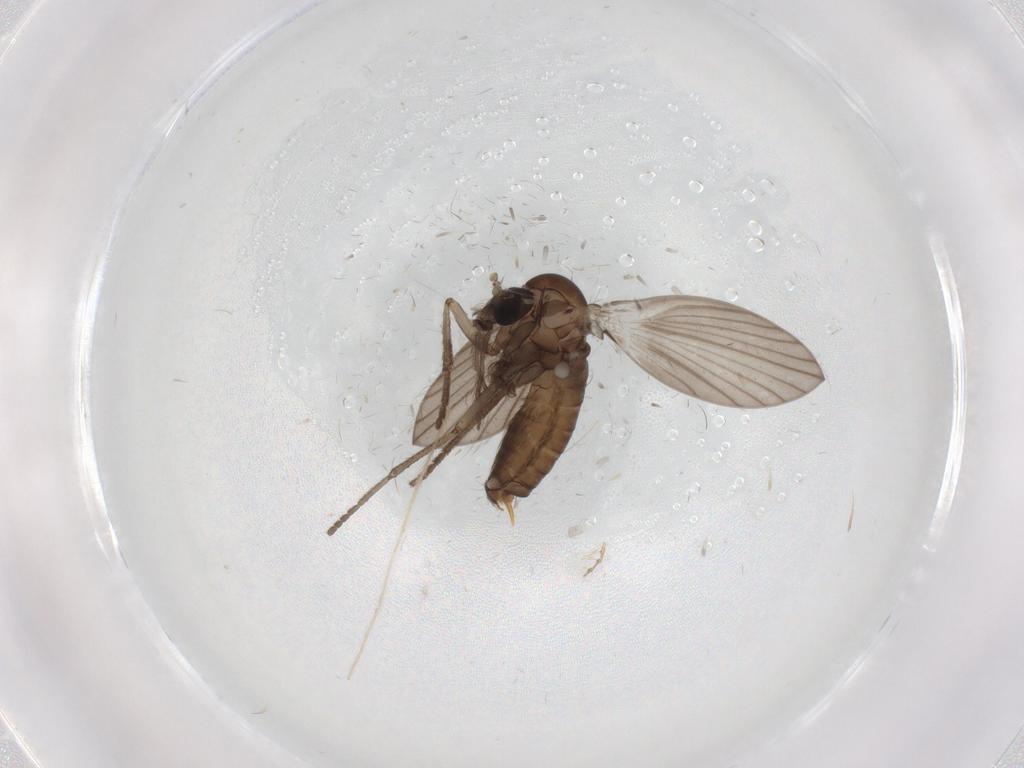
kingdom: Animalia
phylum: Arthropoda
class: Insecta
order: Diptera
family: Psychodidae
